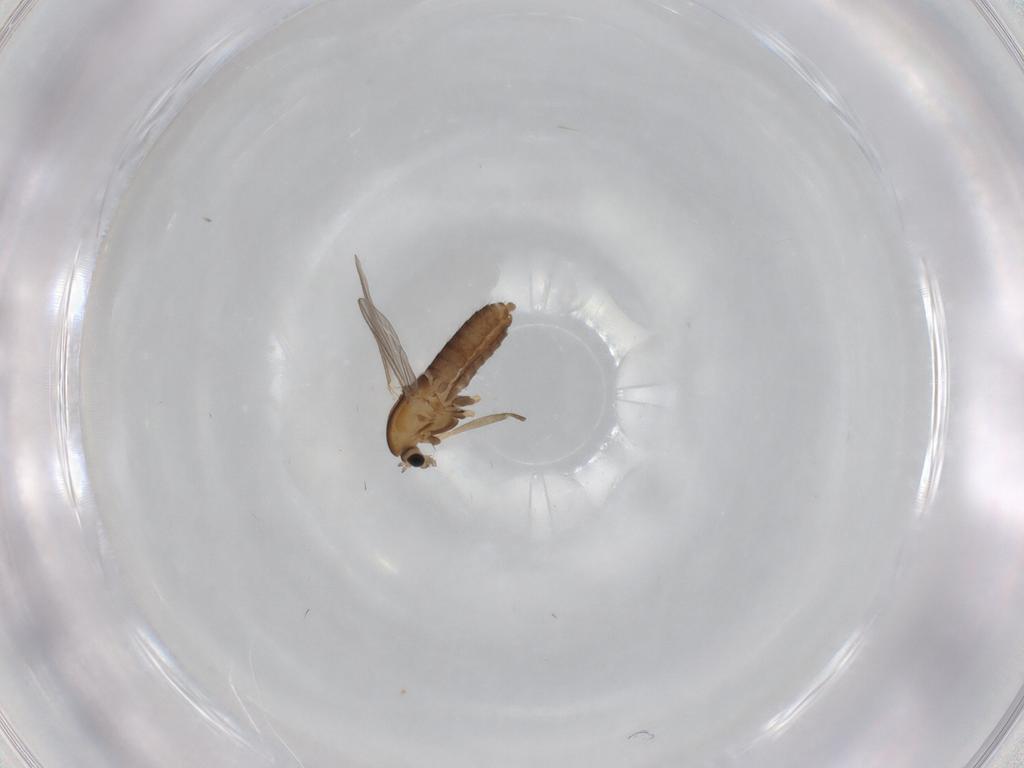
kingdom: Animalia
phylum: Arthropoda
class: Insecta
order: Diptera
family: Chironomidae
